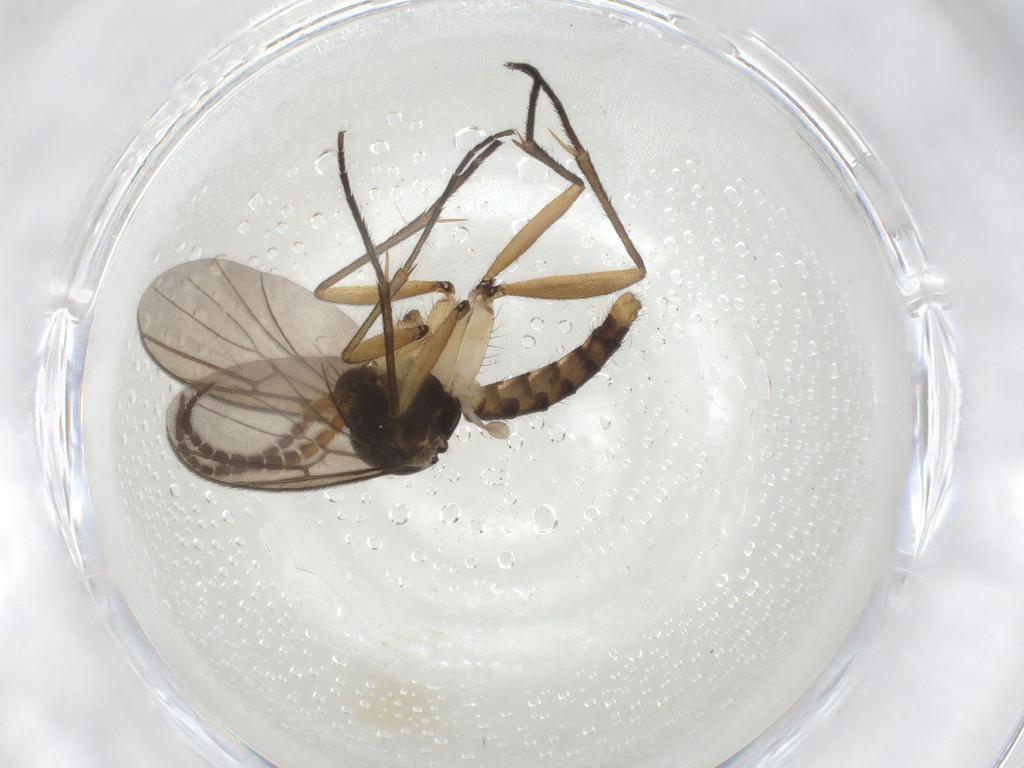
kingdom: Animalia
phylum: Arthropoda
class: Insecta
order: Diptera
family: Mycetophilidae
